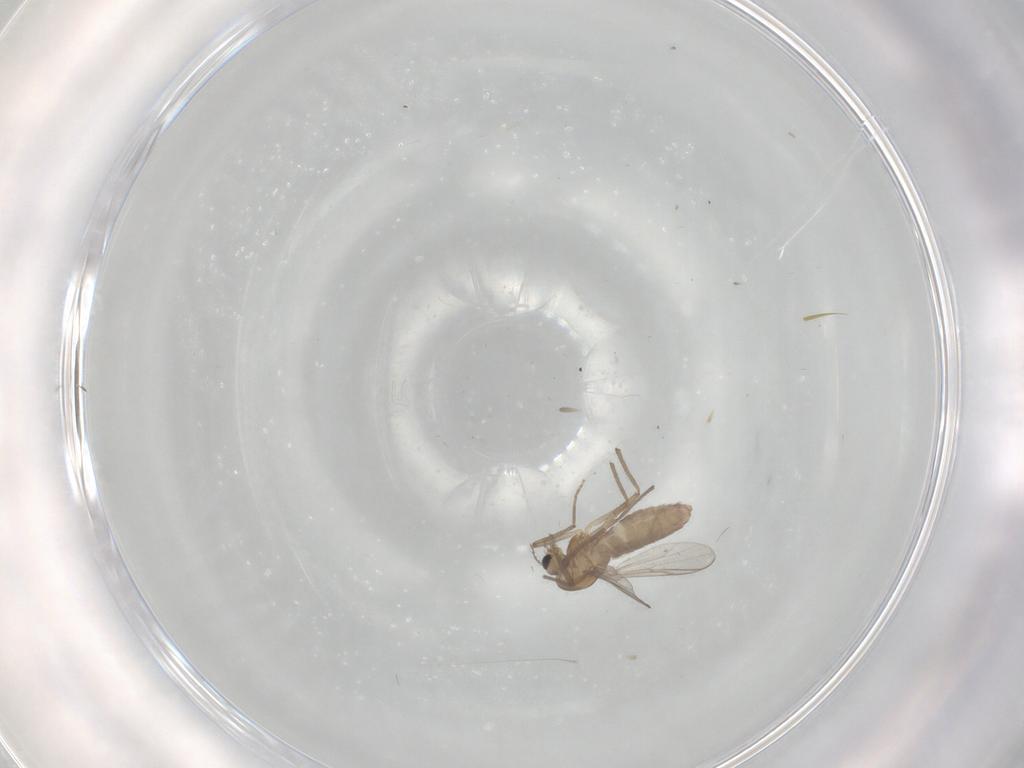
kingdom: Animalia
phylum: Arthropoda
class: Insecta
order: Diptera
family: Chironomidae
